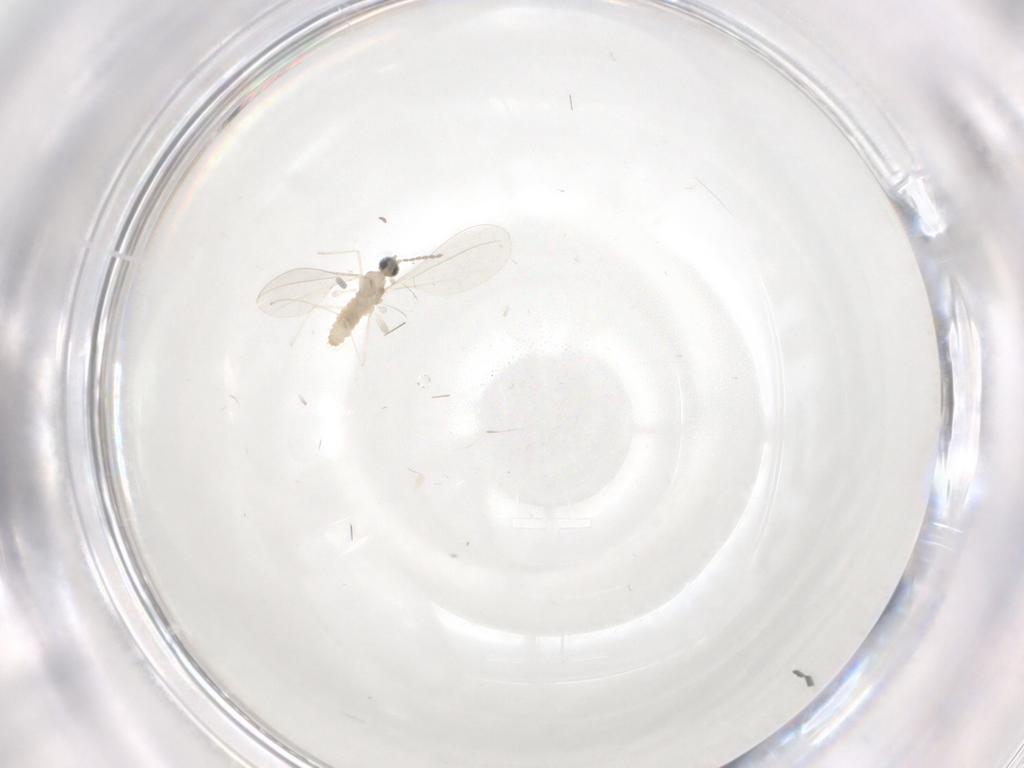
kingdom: Animalia
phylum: Arthropoda
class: Insecta
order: Diptera
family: Cecidomyiidae
